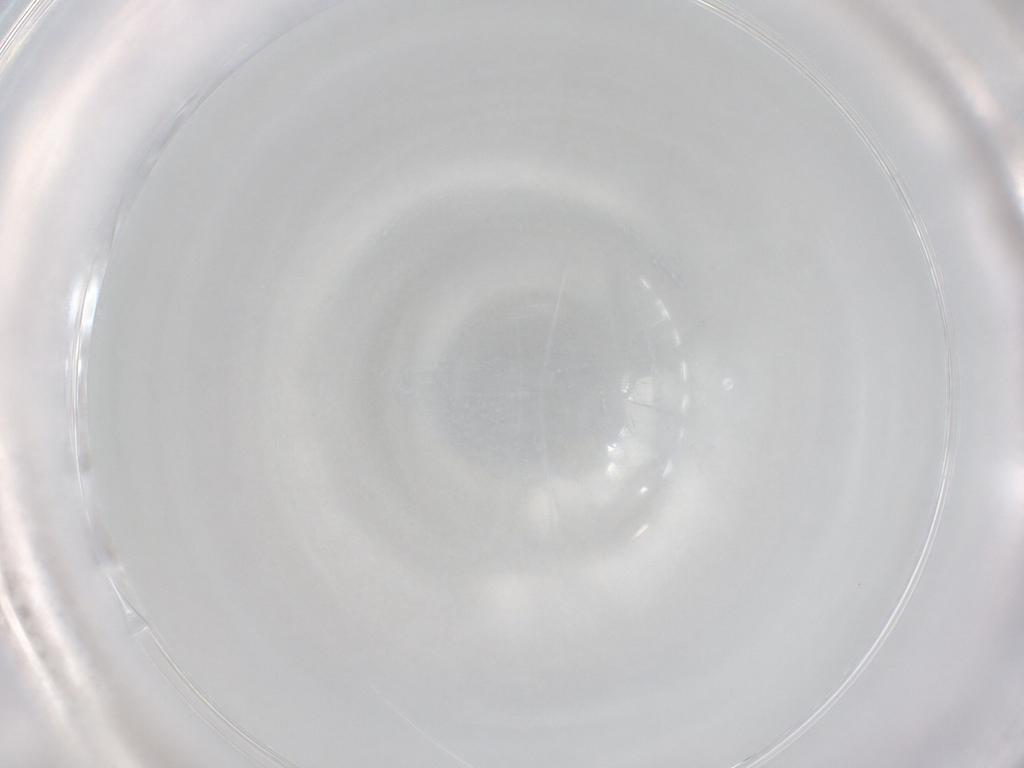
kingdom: Animalia
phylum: Arthropoda
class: Collembola
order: Entomobryomorpha
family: Entomobryidae
